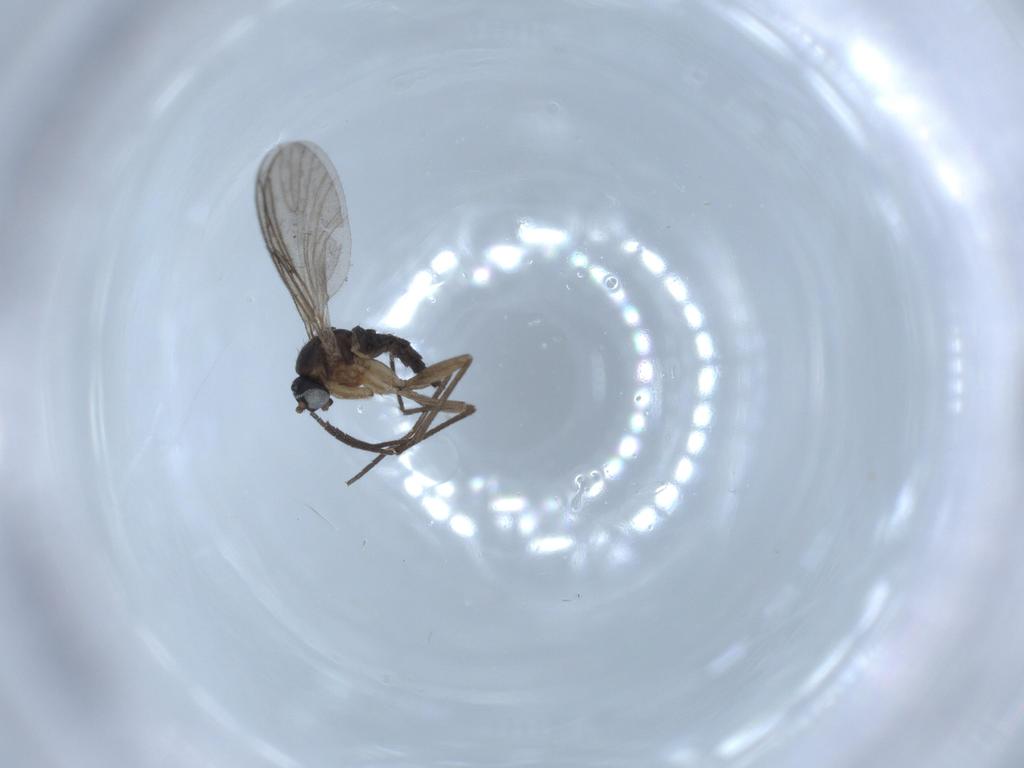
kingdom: Animalia
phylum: Arthropoda
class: Insecta
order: Diptera
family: Sciaridae
